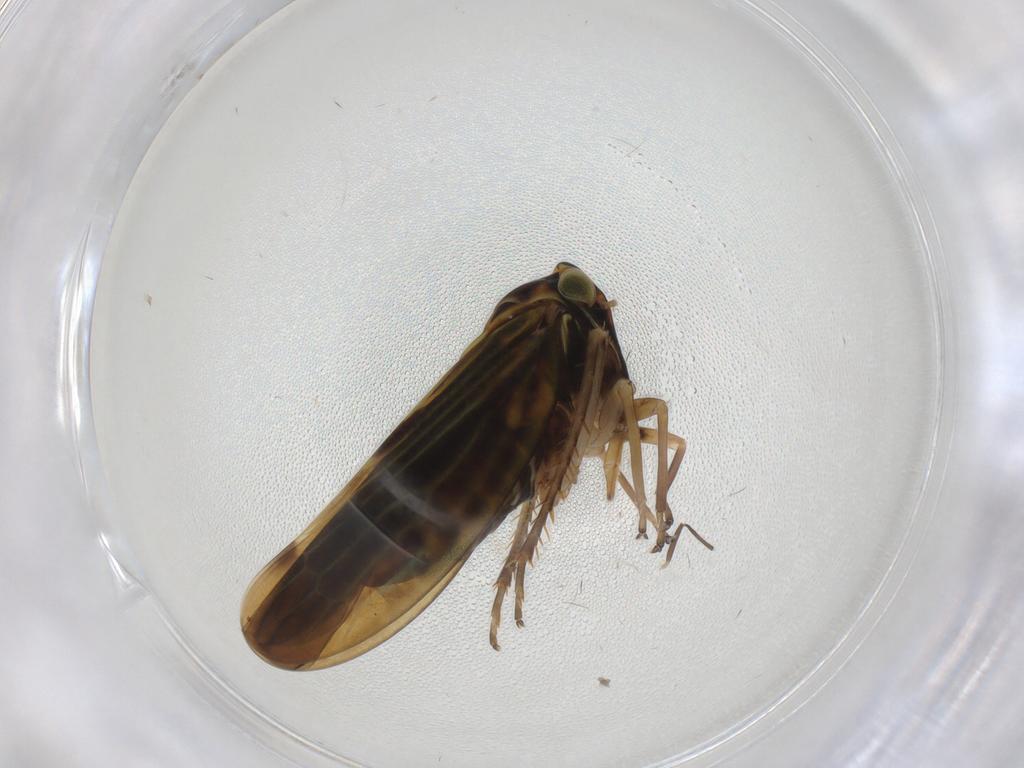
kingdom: Animalia
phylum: Arthropoda
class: Insecta
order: Hemiptera
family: Cicadellidae
